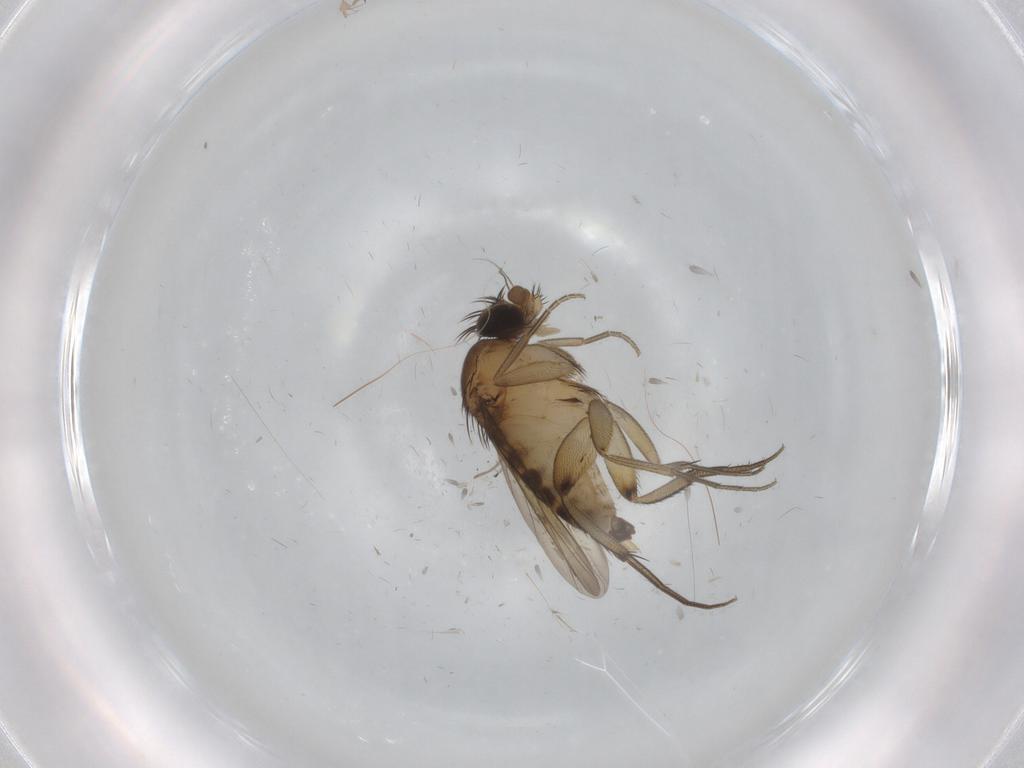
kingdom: Animalia
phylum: Arthropoda
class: Insecta
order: Diptera
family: Phoridae
